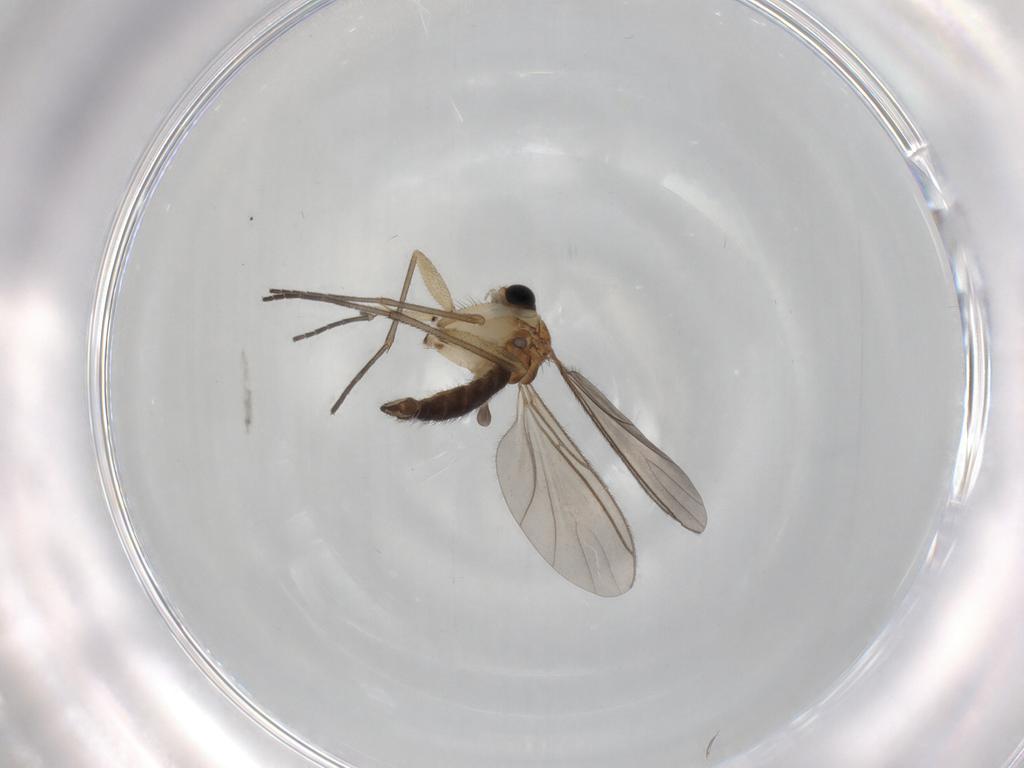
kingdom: Animalia
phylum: Arthropoda
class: Insecta
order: Diptera
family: Sciaridae
